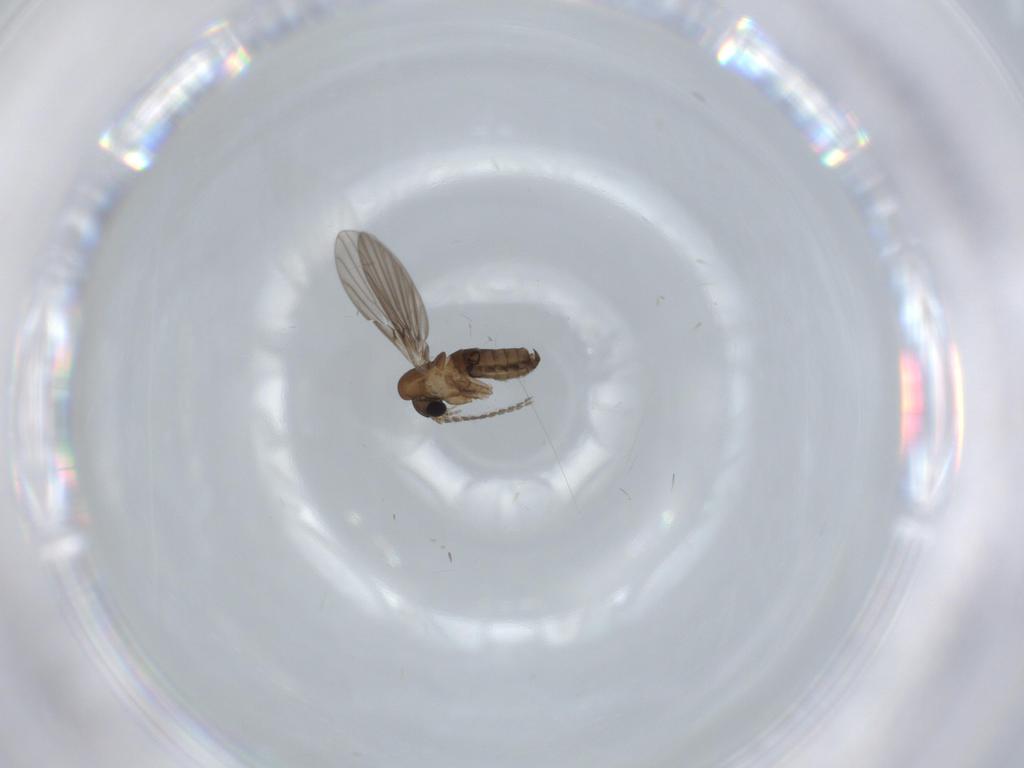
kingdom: Animalia
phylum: Arthropoda
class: Insecta
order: Diptera
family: Psychodidae
